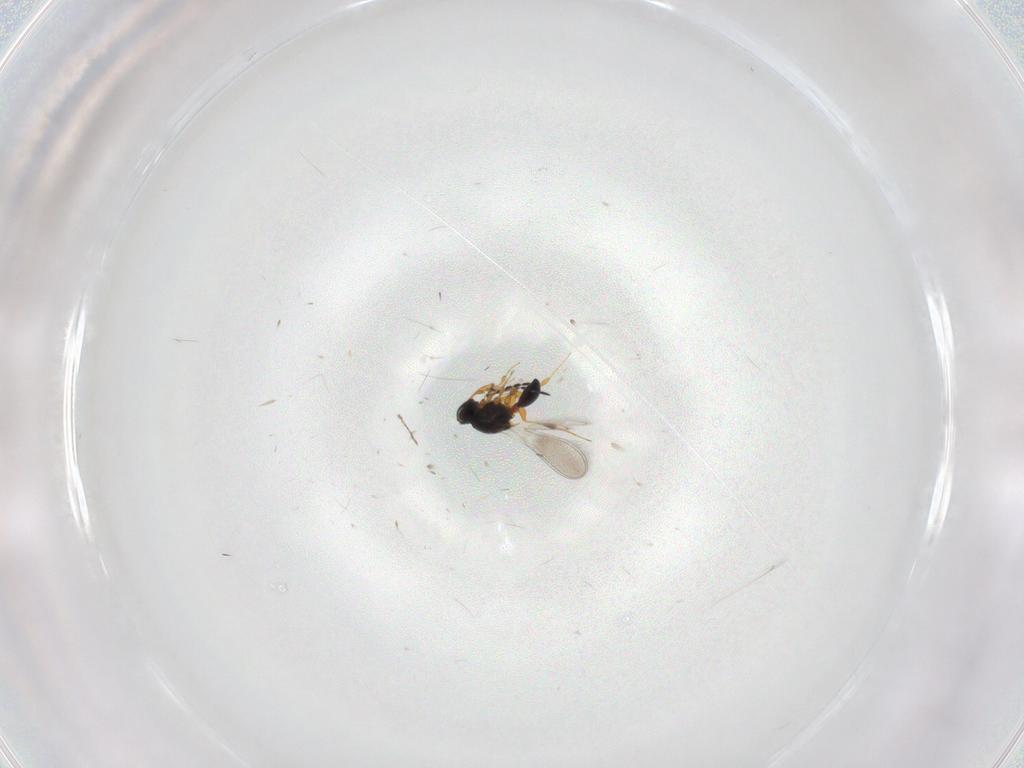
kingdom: Animalia
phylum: Arthropoda
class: Insecta
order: Hymenoptera
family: Platygastridae
